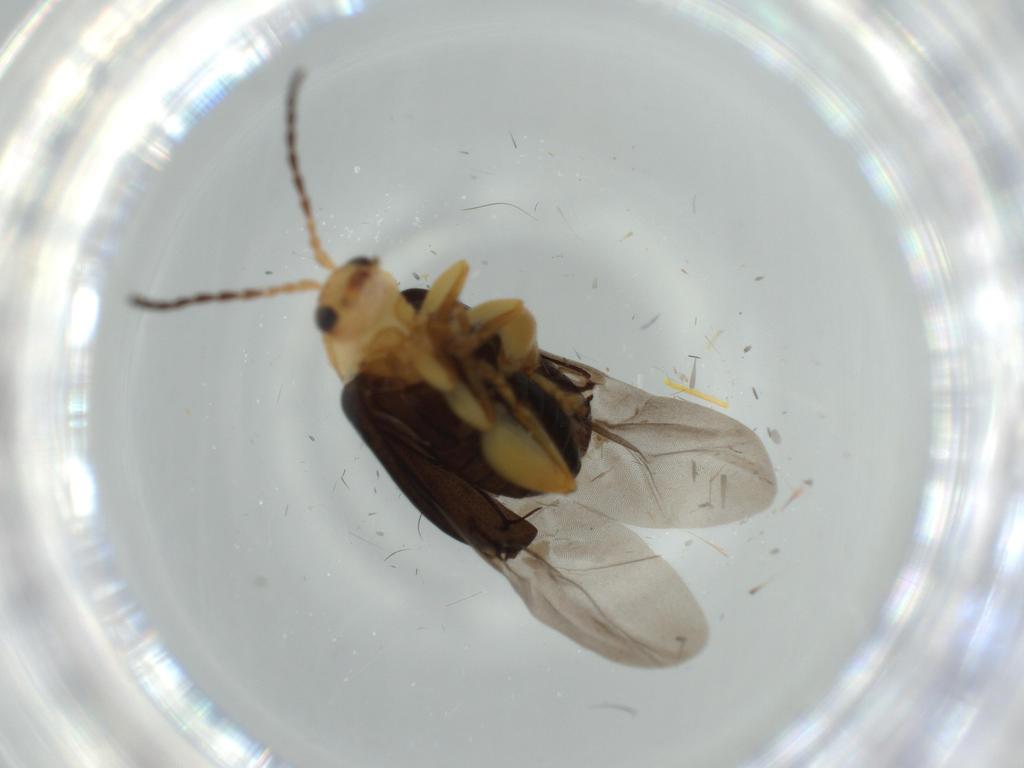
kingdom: Animalia
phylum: Arthropoda
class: Insecta
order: Coleoptera
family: Chrysomelidae
